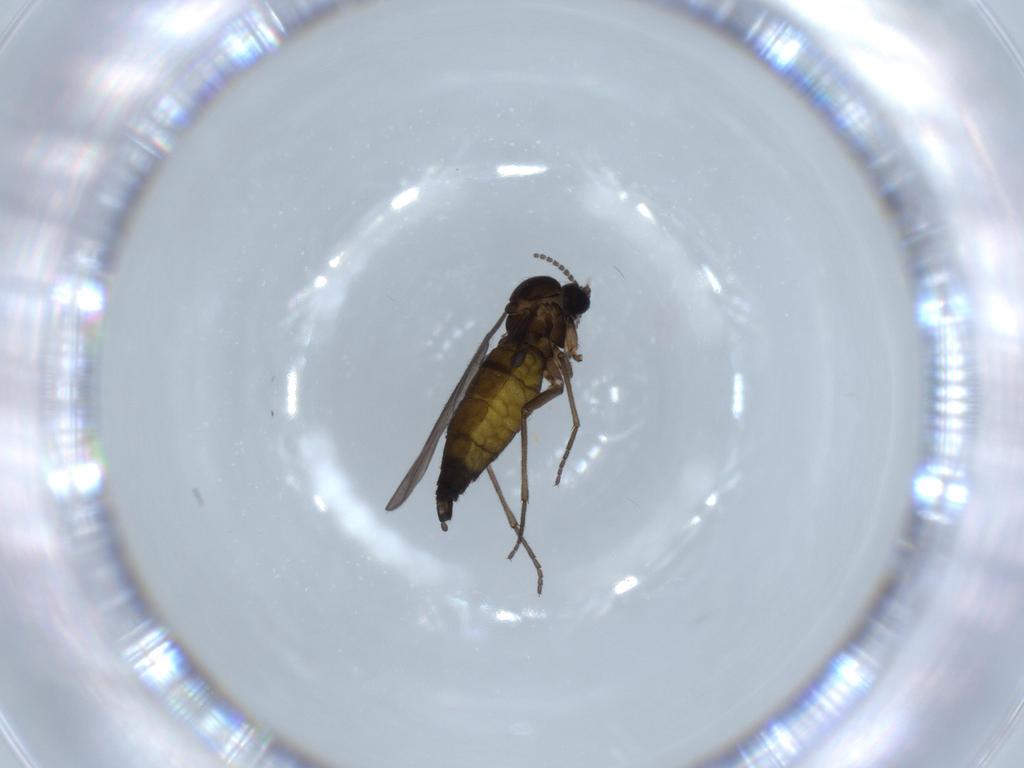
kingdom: Animalia
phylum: Arthropoda
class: Insecta
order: Diptera
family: Sciaridae
